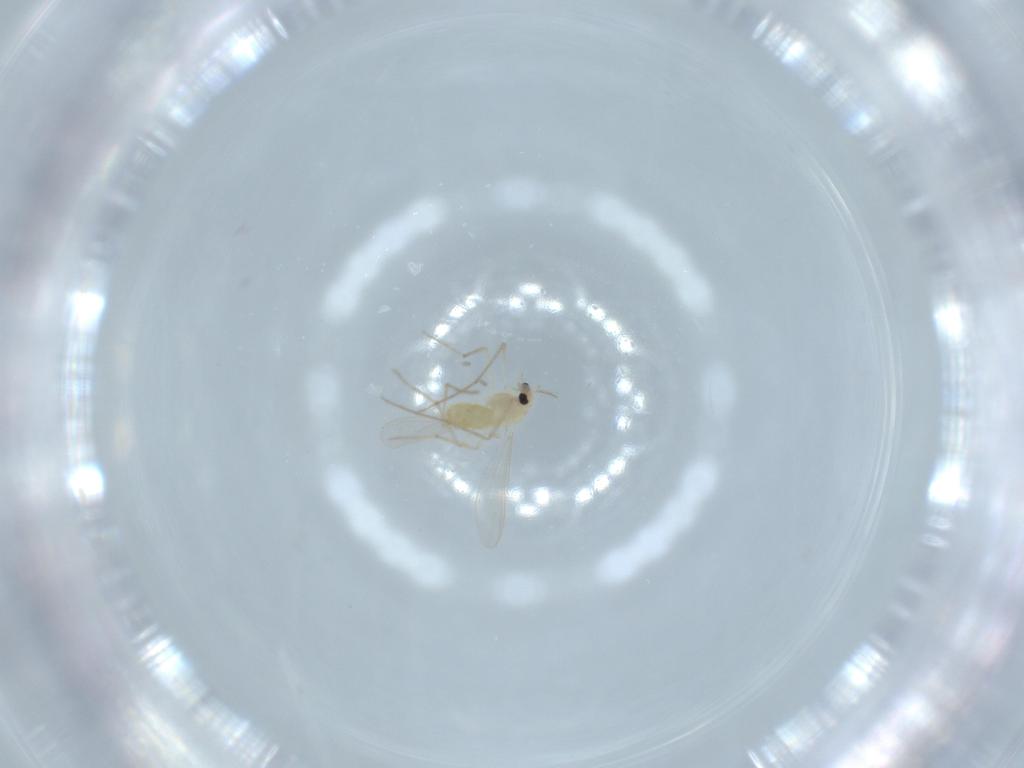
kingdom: Animalia
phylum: Arthropoda
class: Insecta
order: Diptera
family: Chironomidae
